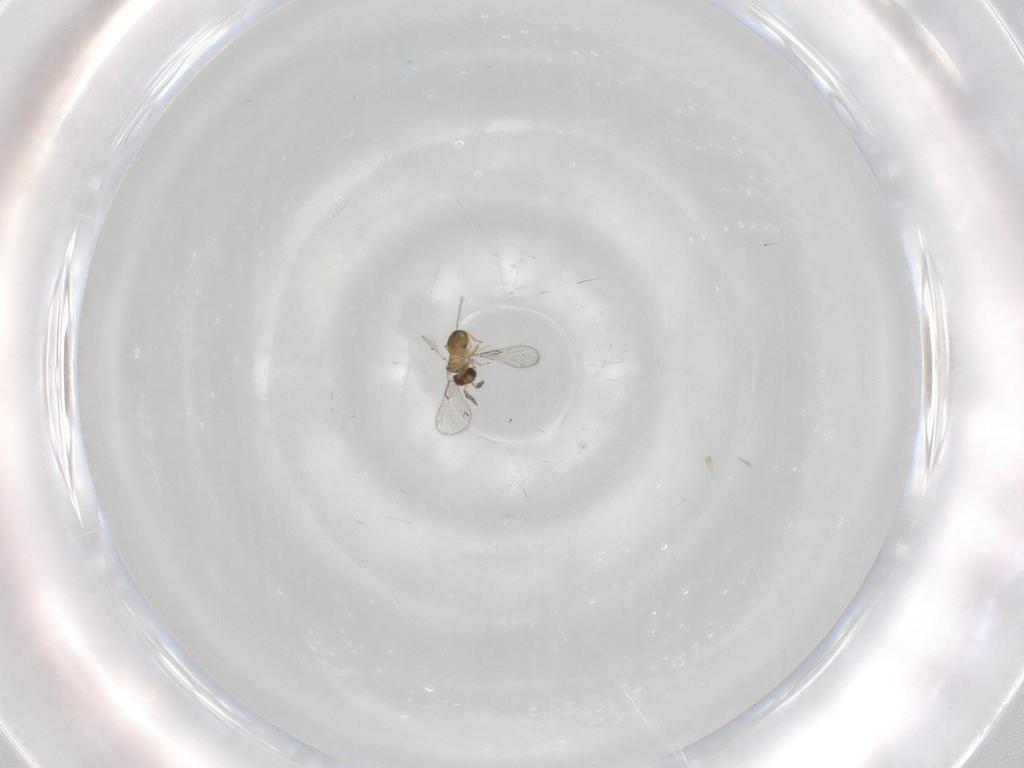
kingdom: Animalia
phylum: Arthropoda
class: Insecta
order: Hymenoptera
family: Trichogrammatidae
